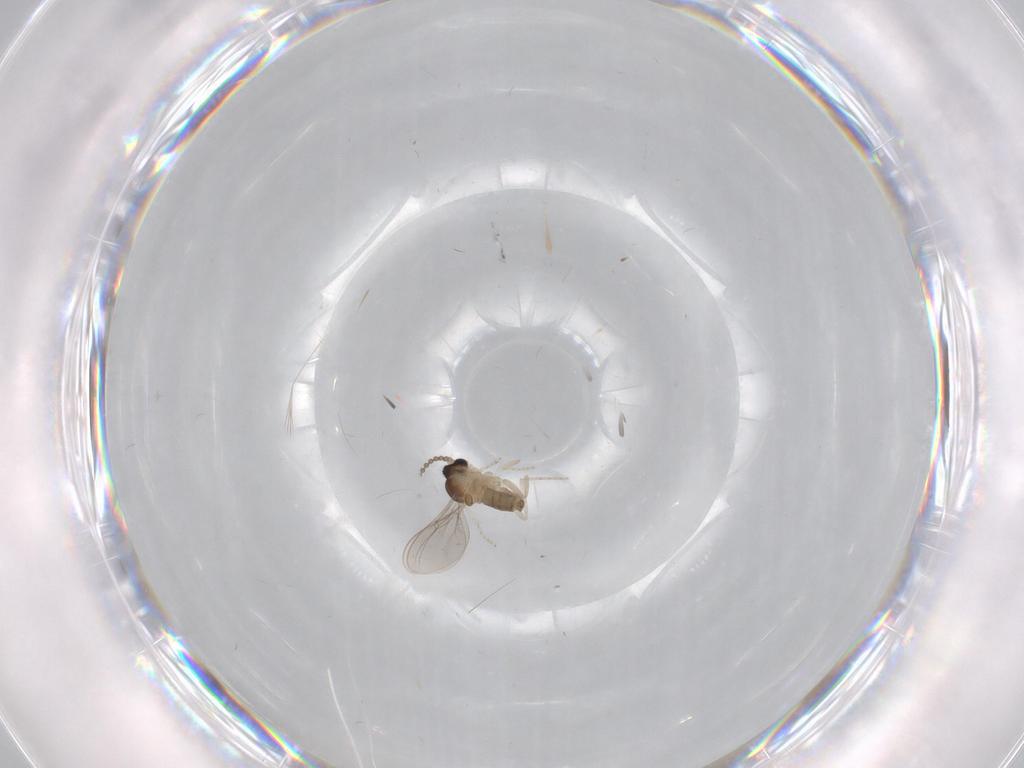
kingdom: Animalia
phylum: Arthropoda
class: Insecta
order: Diptera
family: Cecidomyiidae
